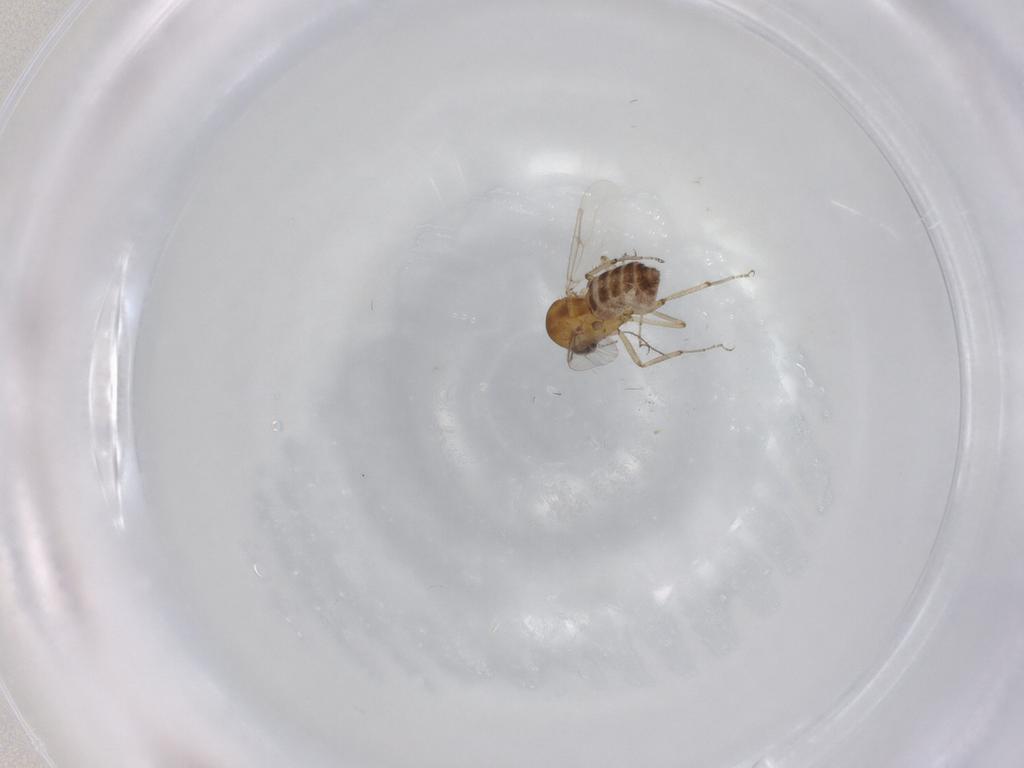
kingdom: Animalia
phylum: Arthropoda
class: Insecta
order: Diptera
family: Ceratopogonidae
